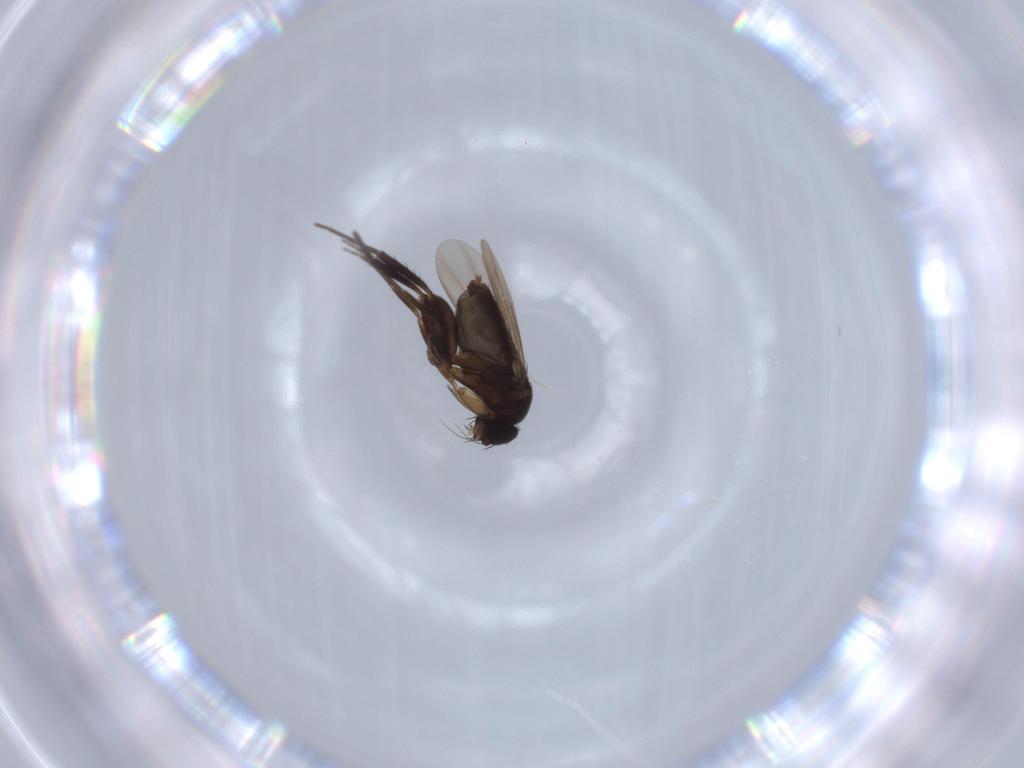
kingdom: Animalia
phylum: Arthropoda
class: Insecta
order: Diptera
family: Phoridae
